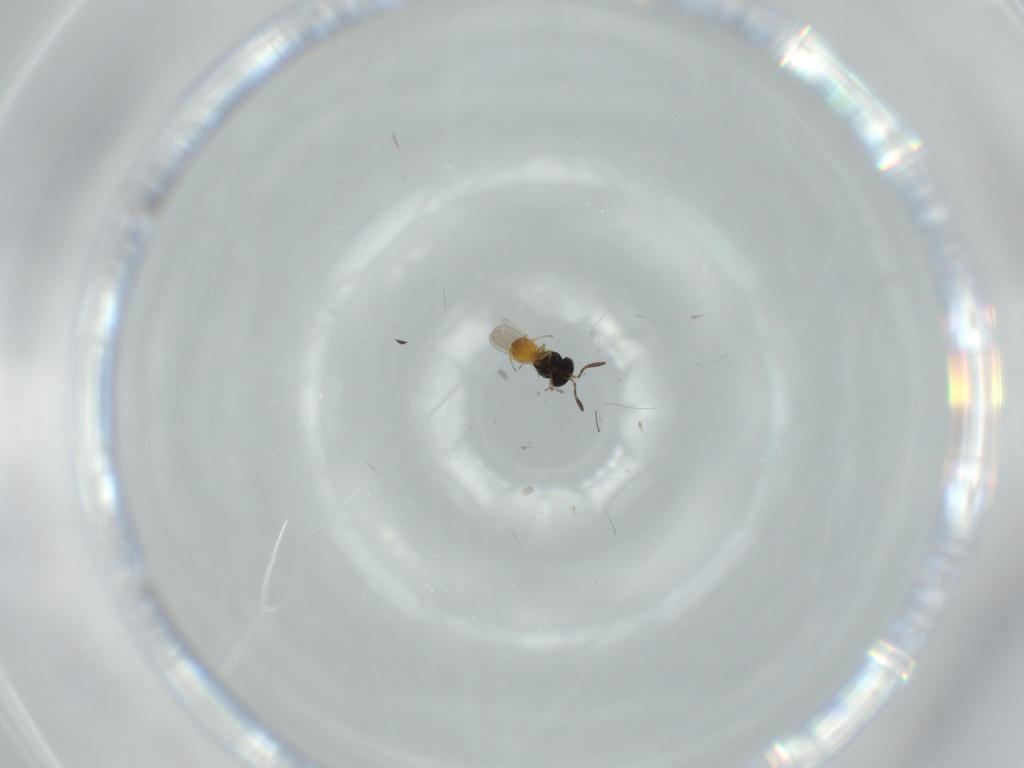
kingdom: Animalia
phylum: Arthropoda
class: Insecta
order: Hymenoptera
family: Scelionidae
